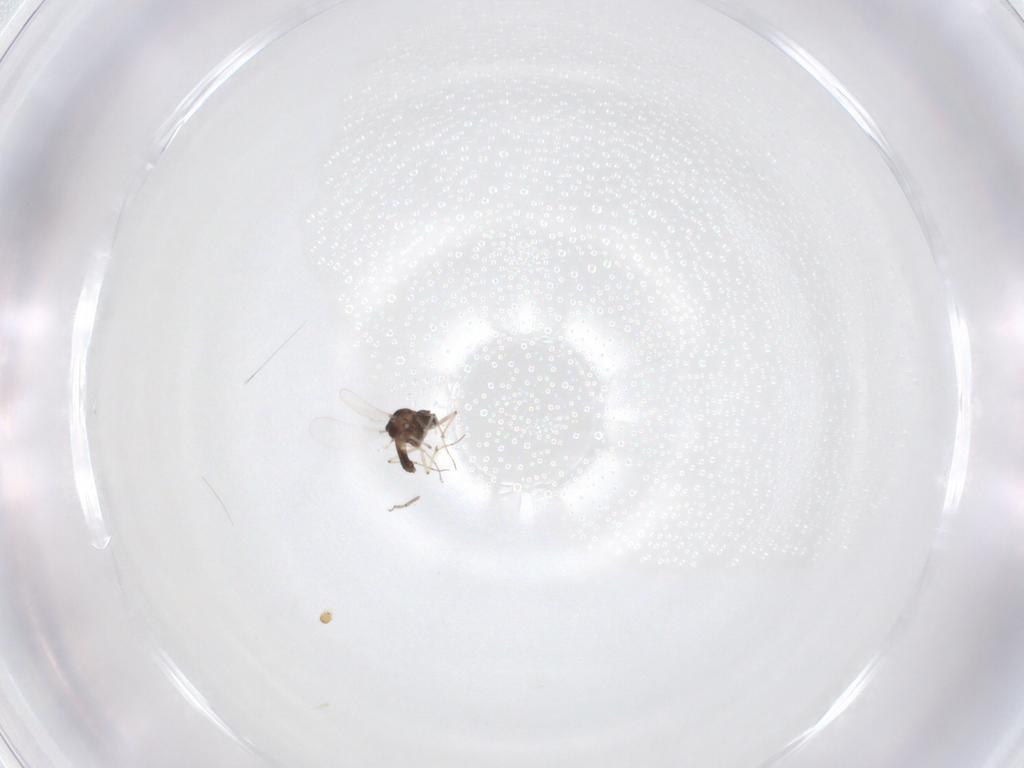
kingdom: Animalia
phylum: Arthropoda
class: Insecta
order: Diptera
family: Chironomidae
